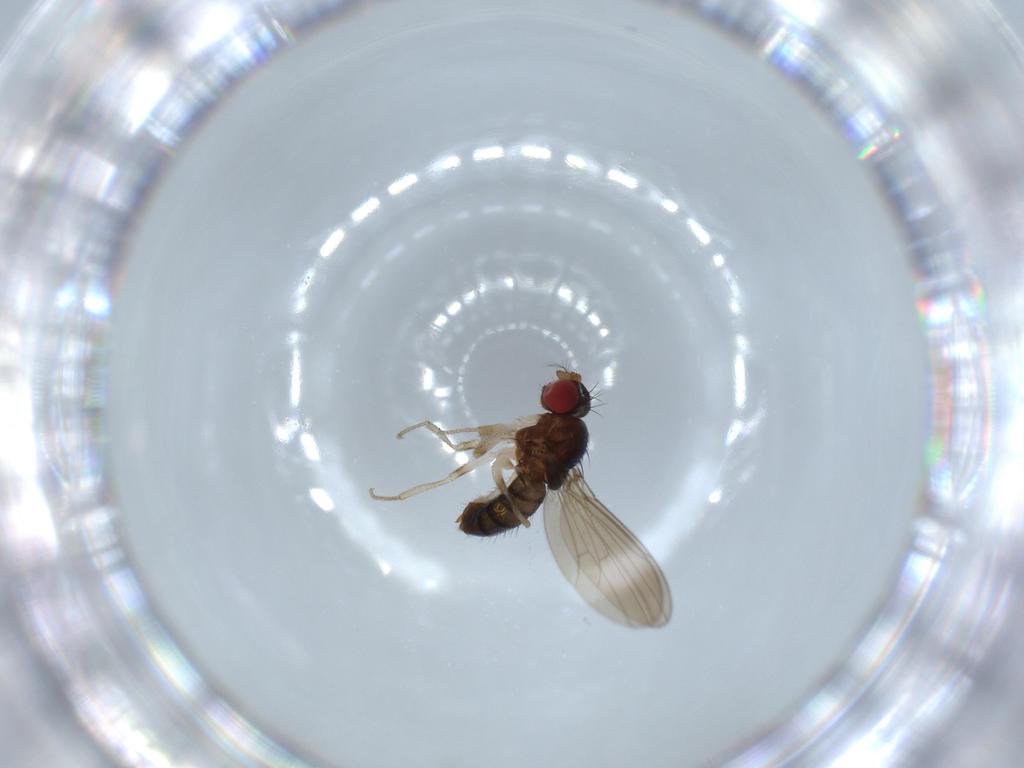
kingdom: Animalia
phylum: Arthropoda
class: Insecta
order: Diptera
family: Drosophilidae
